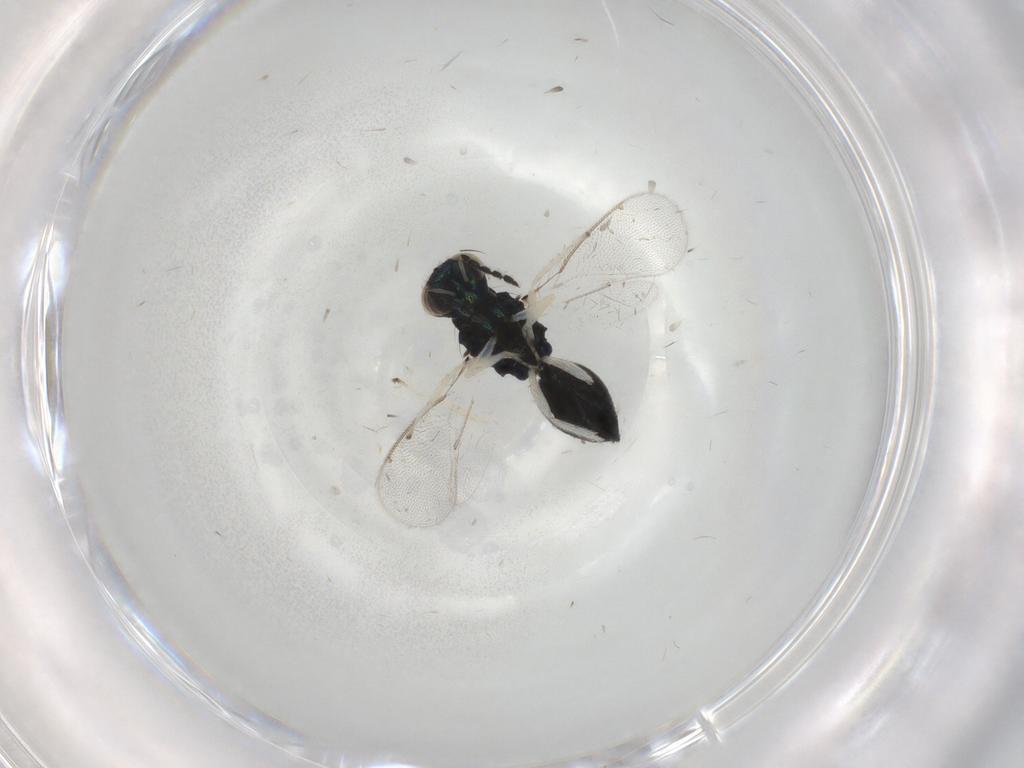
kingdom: Animalia
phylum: Arthropoda
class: Insecta
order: Hymenoptera
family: Eulophidae
